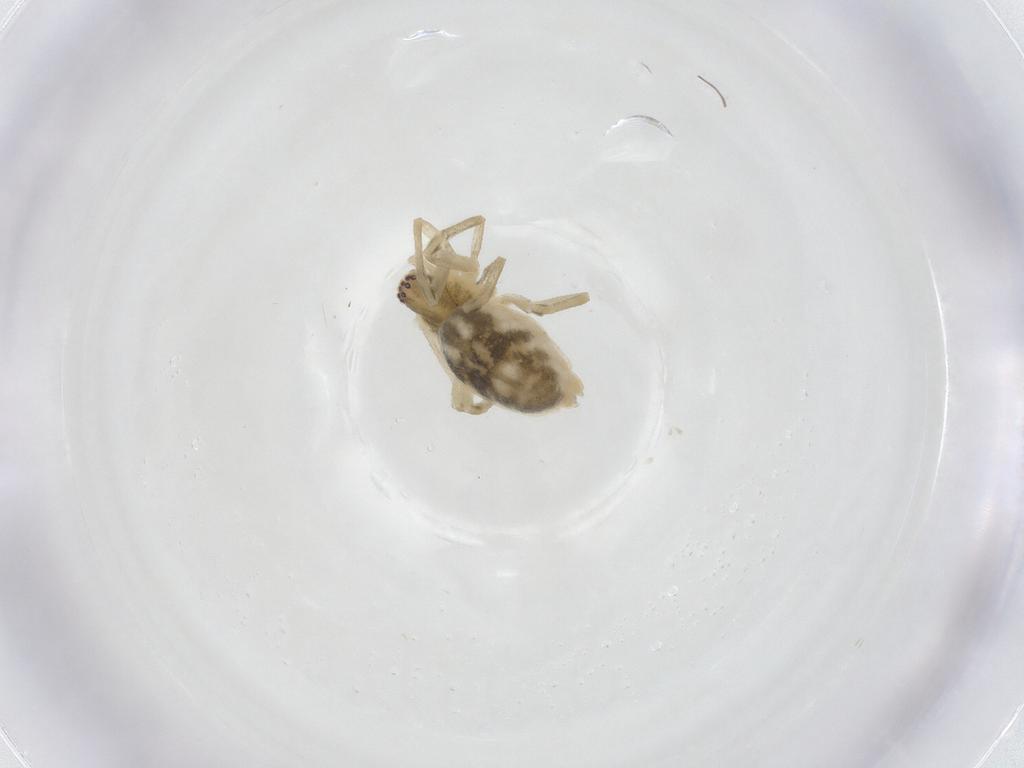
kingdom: Animalia
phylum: Arthropoda
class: Arachnida
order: Araneae
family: Dictynidae
